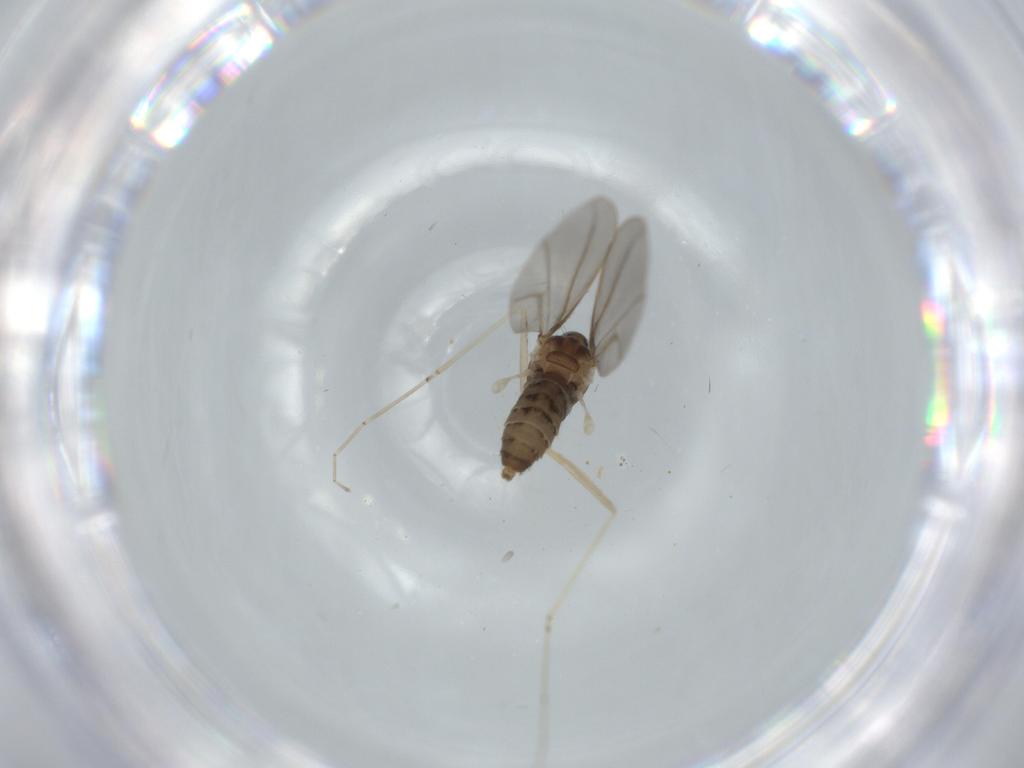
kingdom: Animalia
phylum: Arthropoda
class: Insecta
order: Diptera
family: Cecidomyiidae
